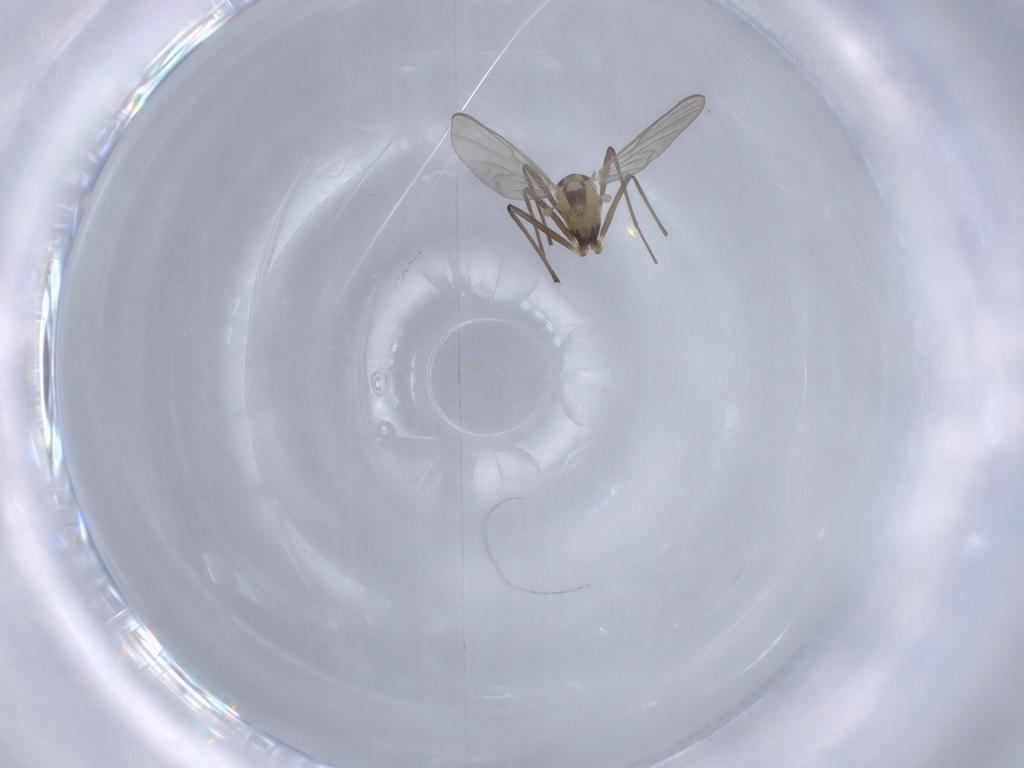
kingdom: Animalia
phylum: Arthropoda
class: Insecta
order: Diptera
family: Chironomidae
